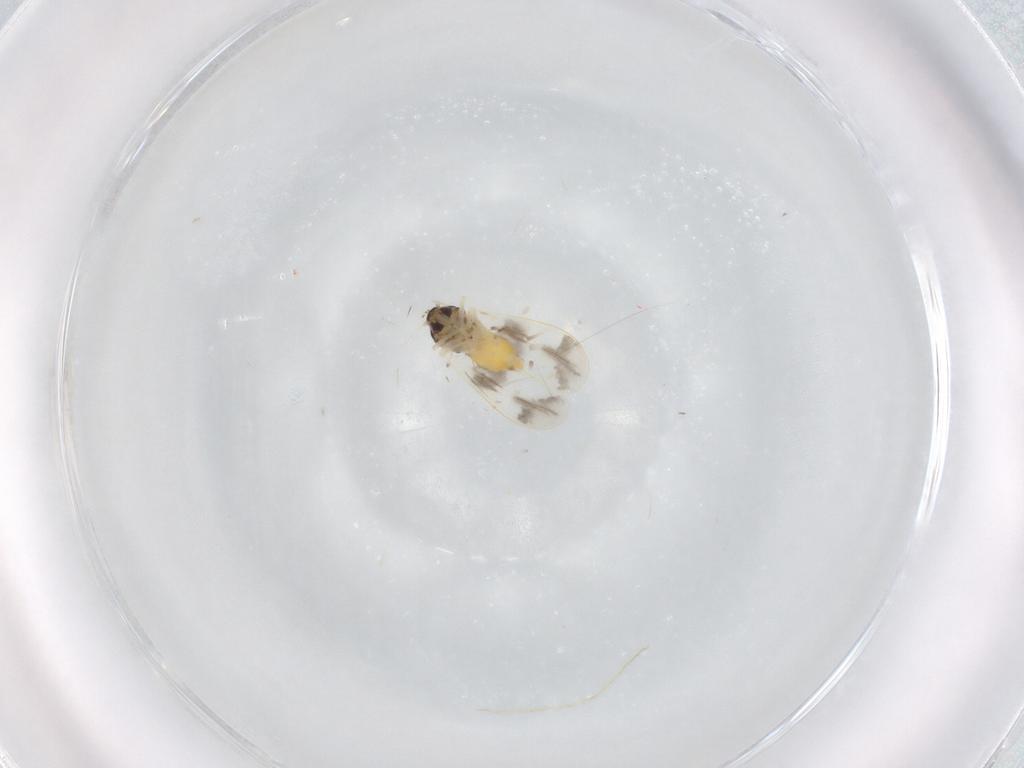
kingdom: Animalia
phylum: Arthropoda
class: Insecta
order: Hemiptera
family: Aleyrodidae
